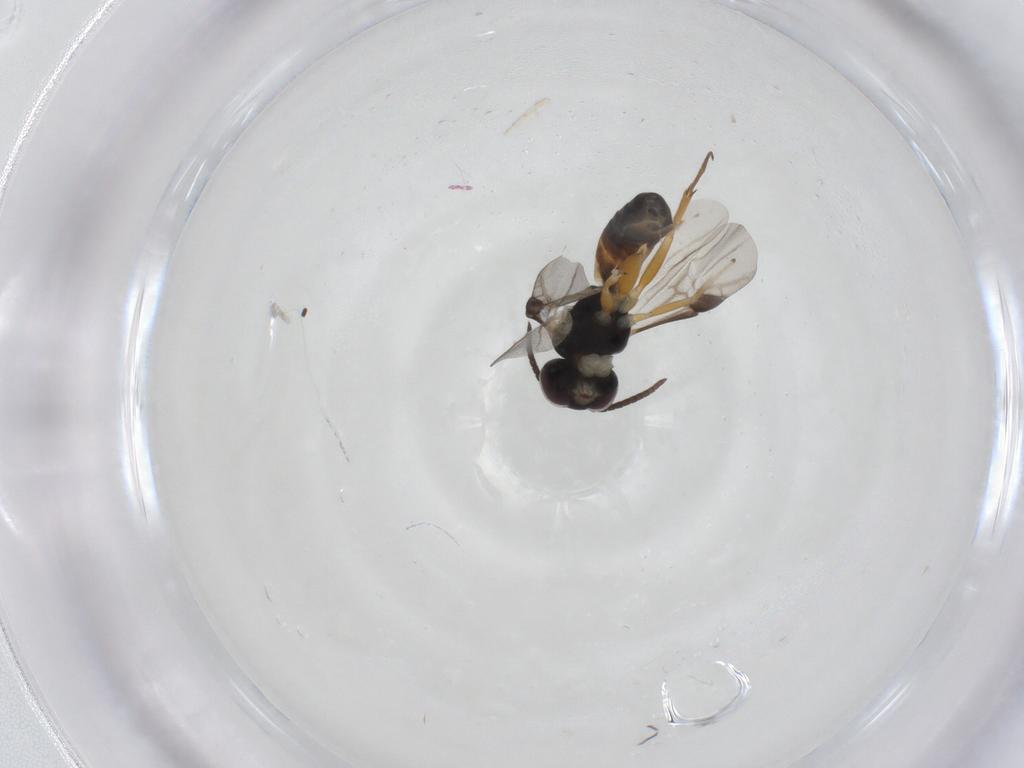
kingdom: Animalia
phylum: Arthropoda
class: Insecta
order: Hymenoptera
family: Braconidae
